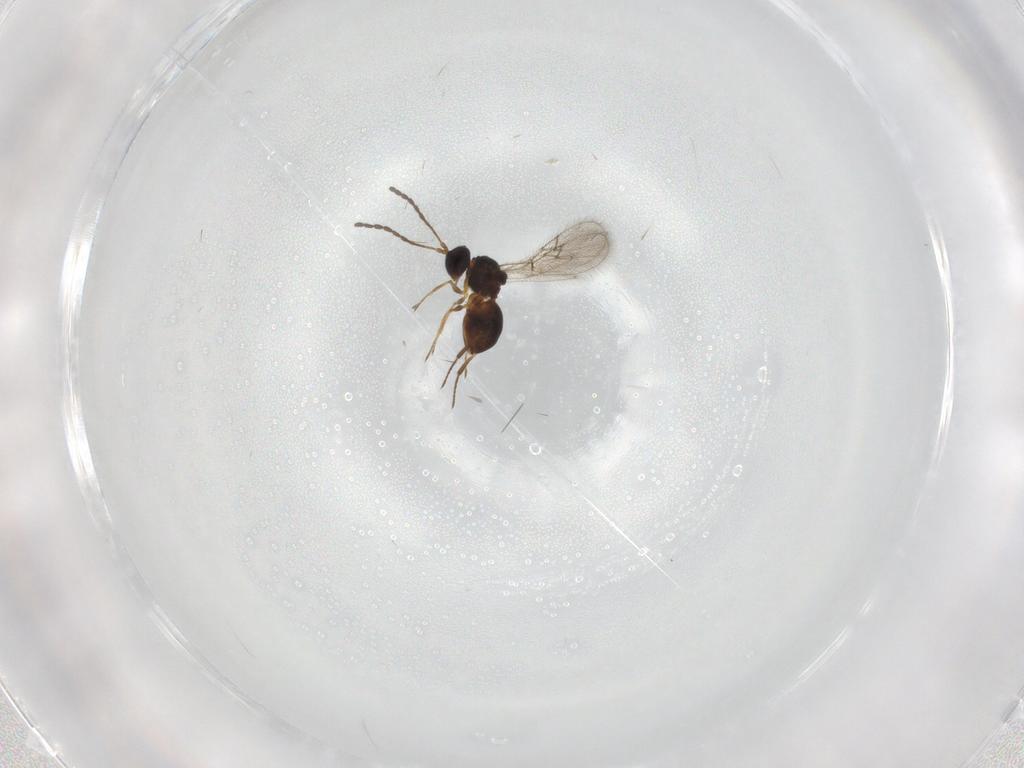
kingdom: Animalia
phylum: Arthropoda
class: Insecta
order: Hymenoptera
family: Figitidae
